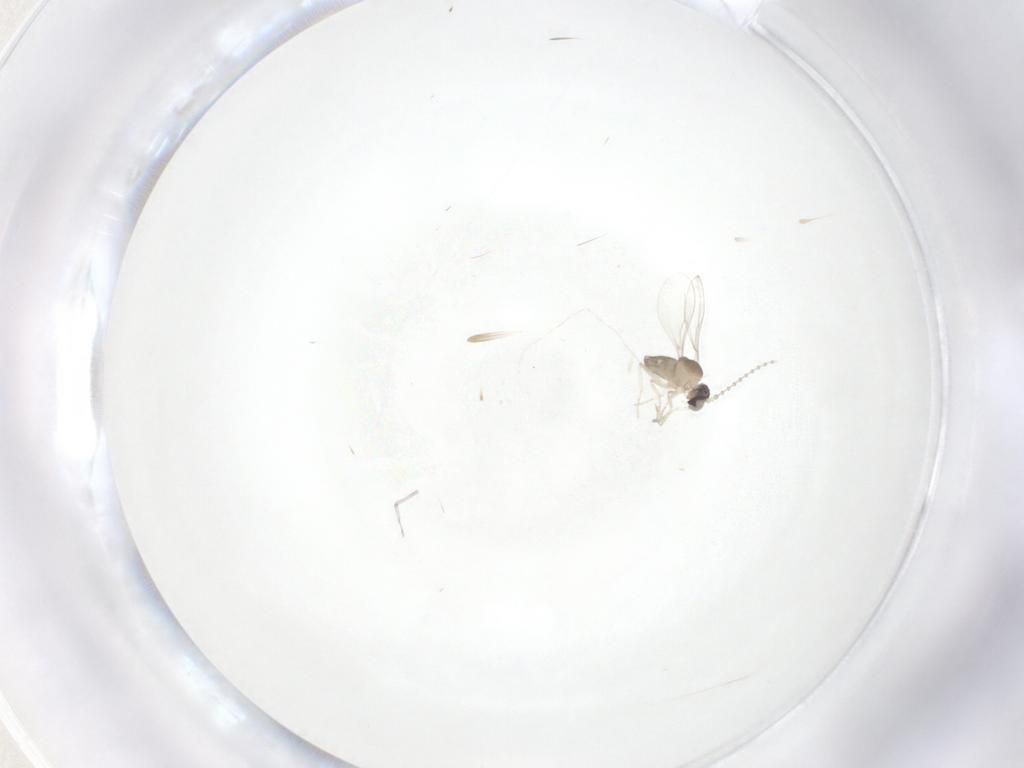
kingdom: Animalia
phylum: Arthropoda
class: Insecta
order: Diptera
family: Cecidomyiidae
